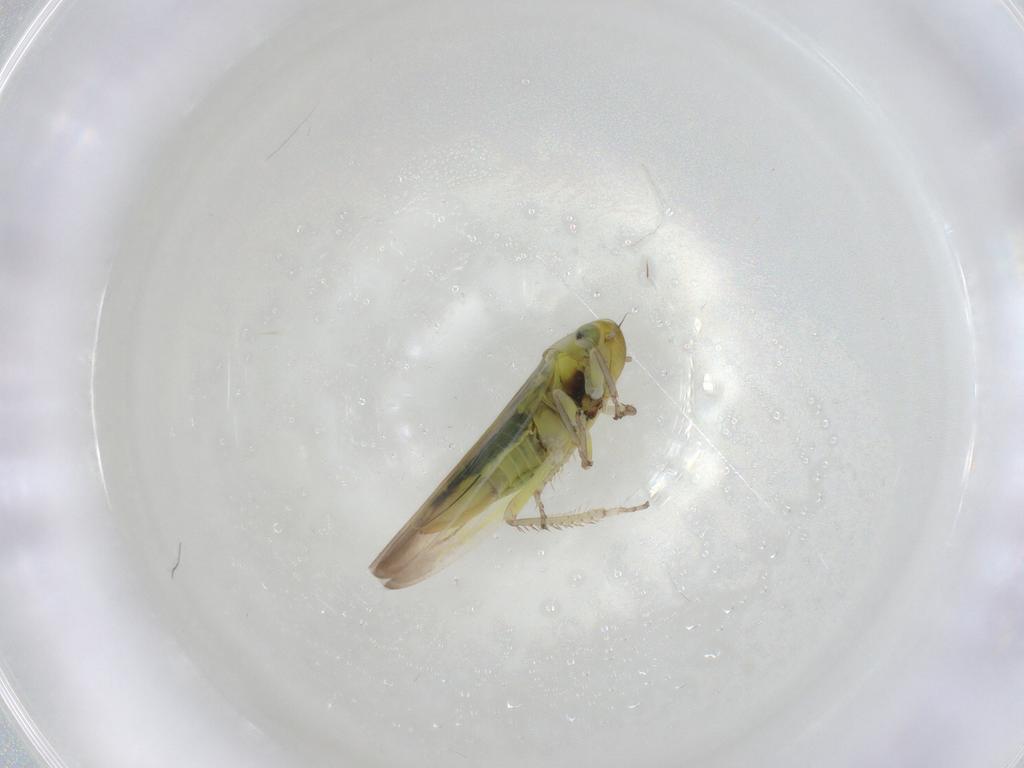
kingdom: Animalia
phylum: Arthropoda
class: Insecta
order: Hemiptera
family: Cicadellidae
